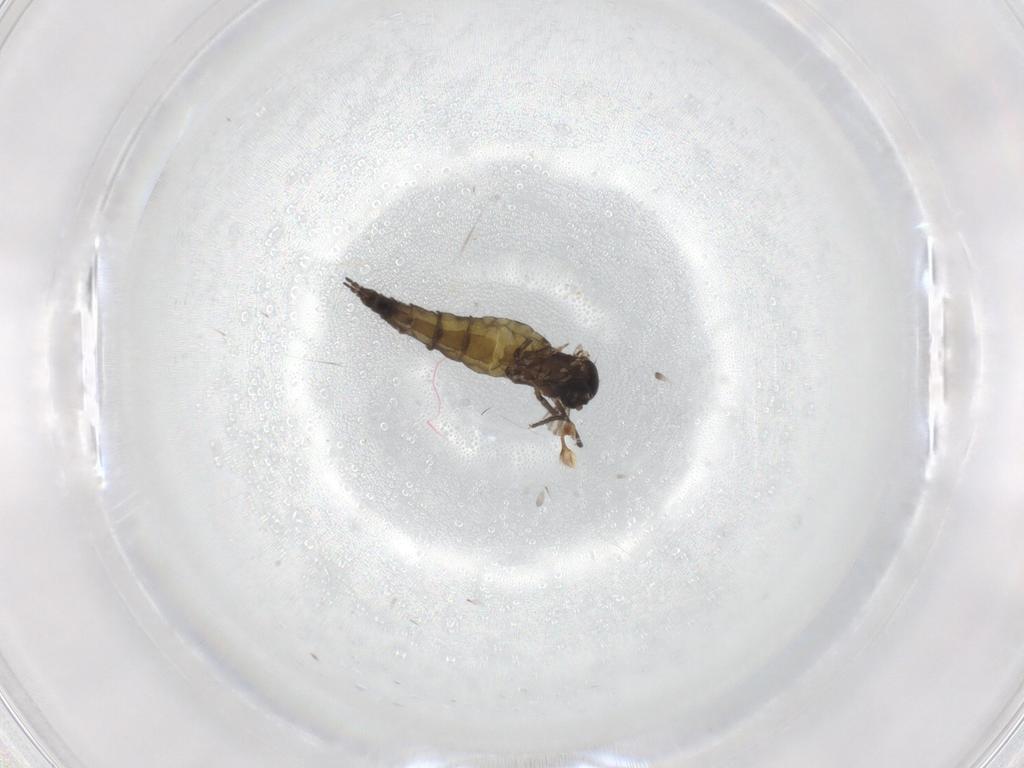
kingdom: Animalia
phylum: Arthropoda
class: Insecta
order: Diptera
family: Sciaridae
